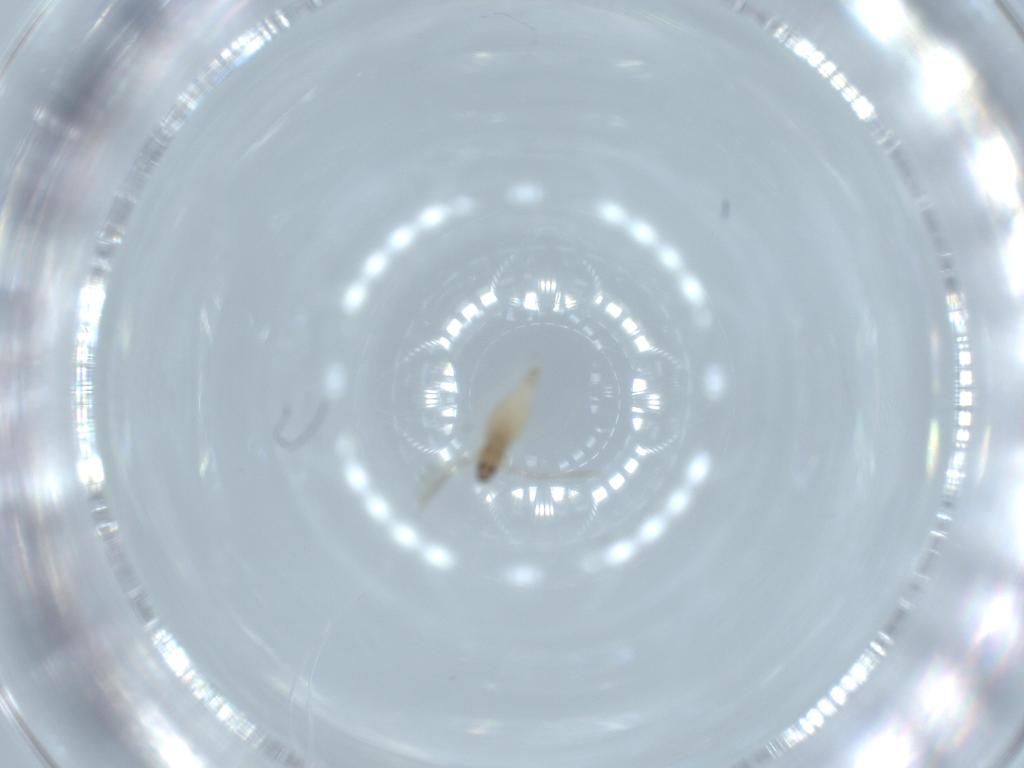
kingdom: Animalia
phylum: Arthropoda
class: Insecta
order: Diptera
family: Cecidomyiidae
